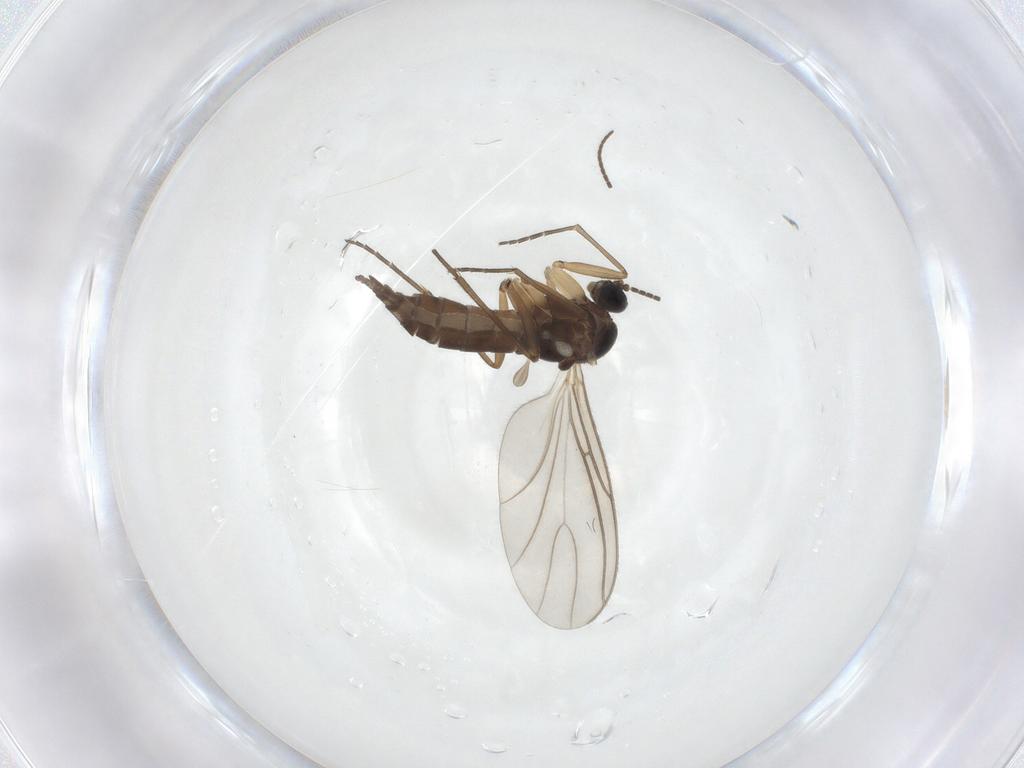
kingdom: Animalia
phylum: Arthropoda
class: Insecta
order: Diptera
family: Sciaridae
